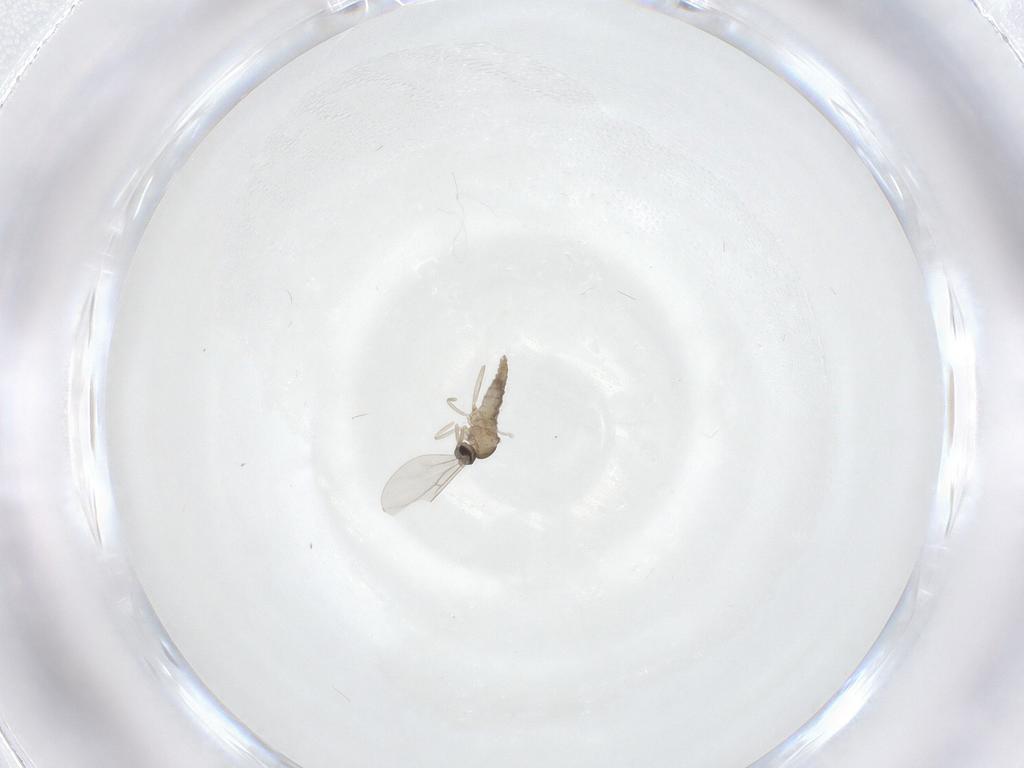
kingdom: Animalia
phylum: Arthropoda
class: Insecta
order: Diptera
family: Cecidomyiidae
